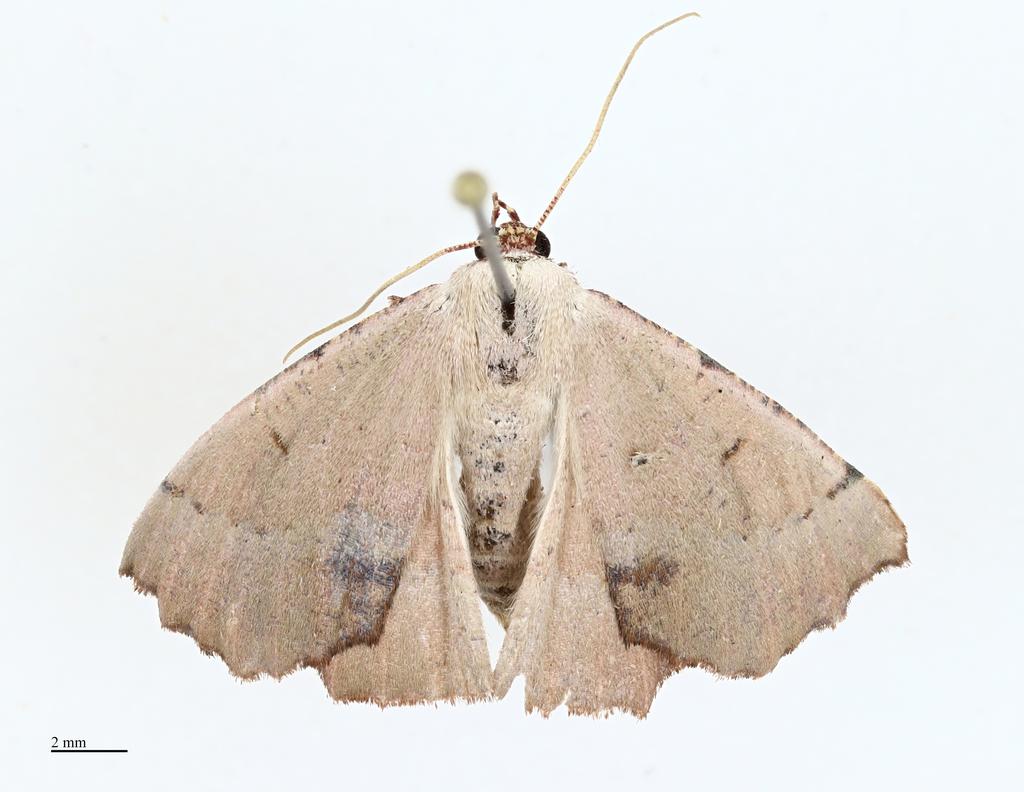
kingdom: Animalia
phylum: Arthropoda
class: Insecta
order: Lepidoptera
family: Geometridae
